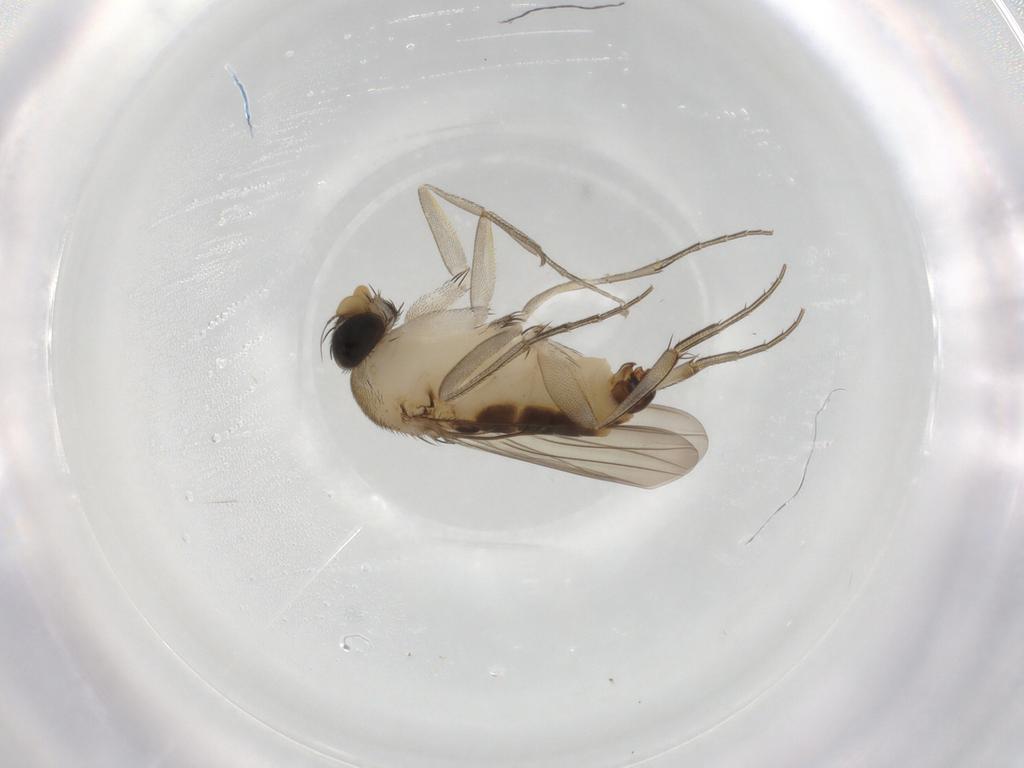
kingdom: Animalia
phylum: Arthropoda
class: Insecta
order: Diptera
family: Phoridae
